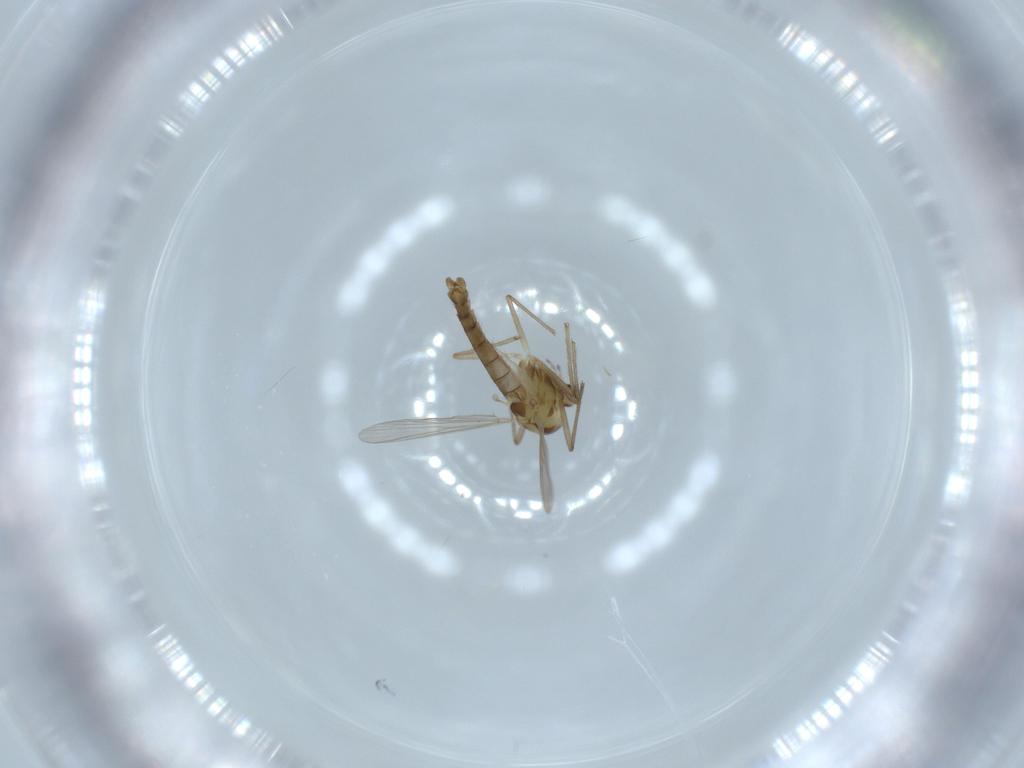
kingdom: Animalia
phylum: Arthropoda
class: Insecta
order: Diptera
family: Chironomidae
